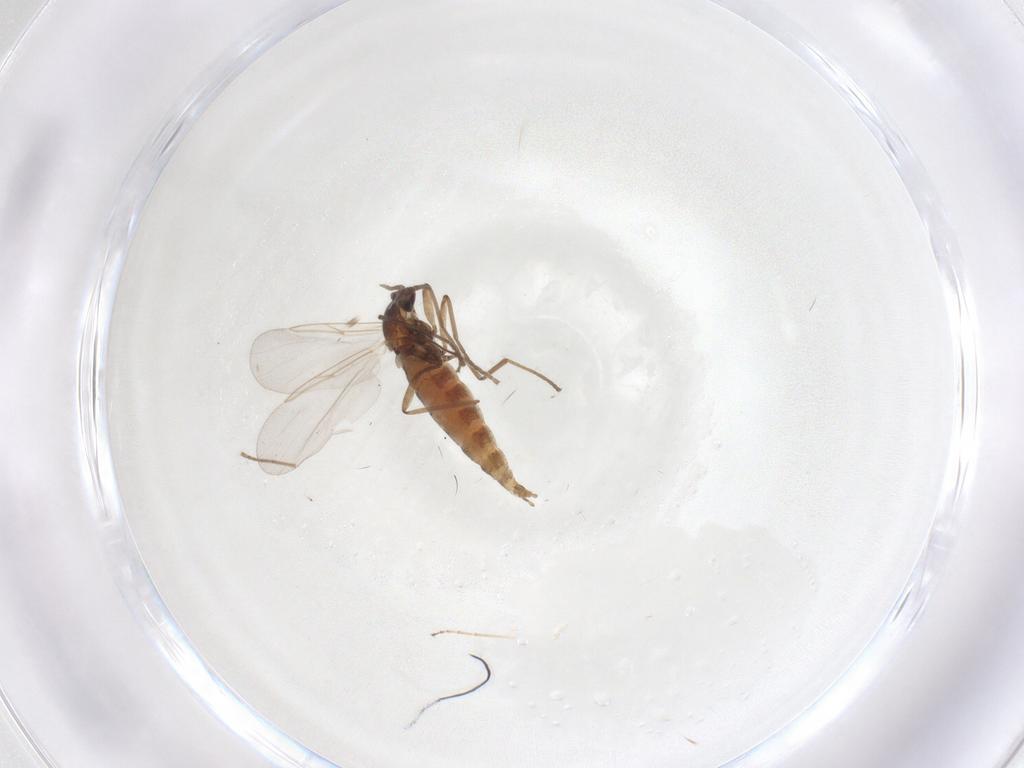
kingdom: Animalia
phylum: Arthropoda
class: Insecta
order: Diptera
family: Cecidomyiidae
